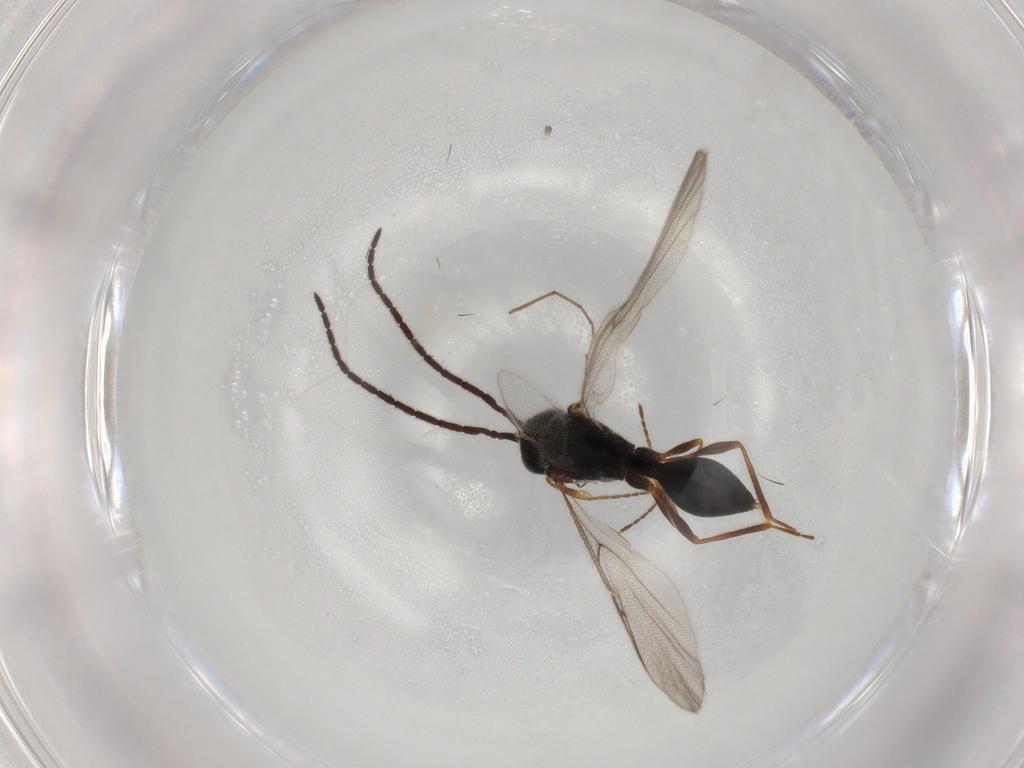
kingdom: Animalia
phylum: Arthropoda
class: Insecta
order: Hymenoptera
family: Diapriidae
